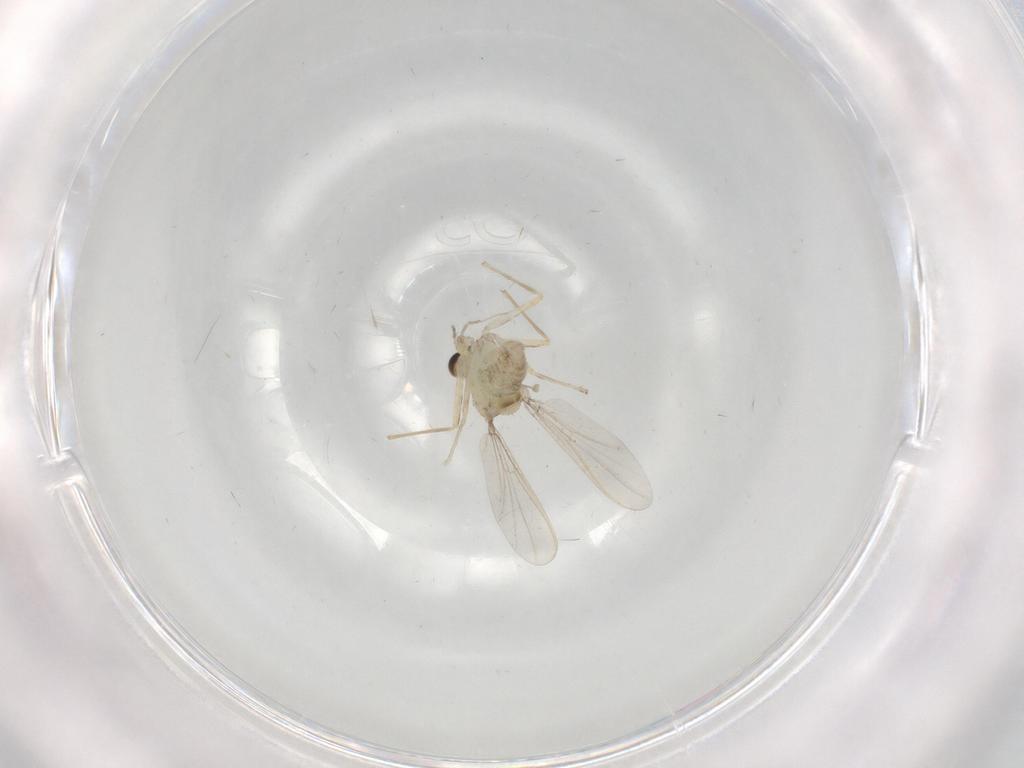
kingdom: Animalia
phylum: Arthropoda
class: Insecta
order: Diptera
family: Chironomidae
